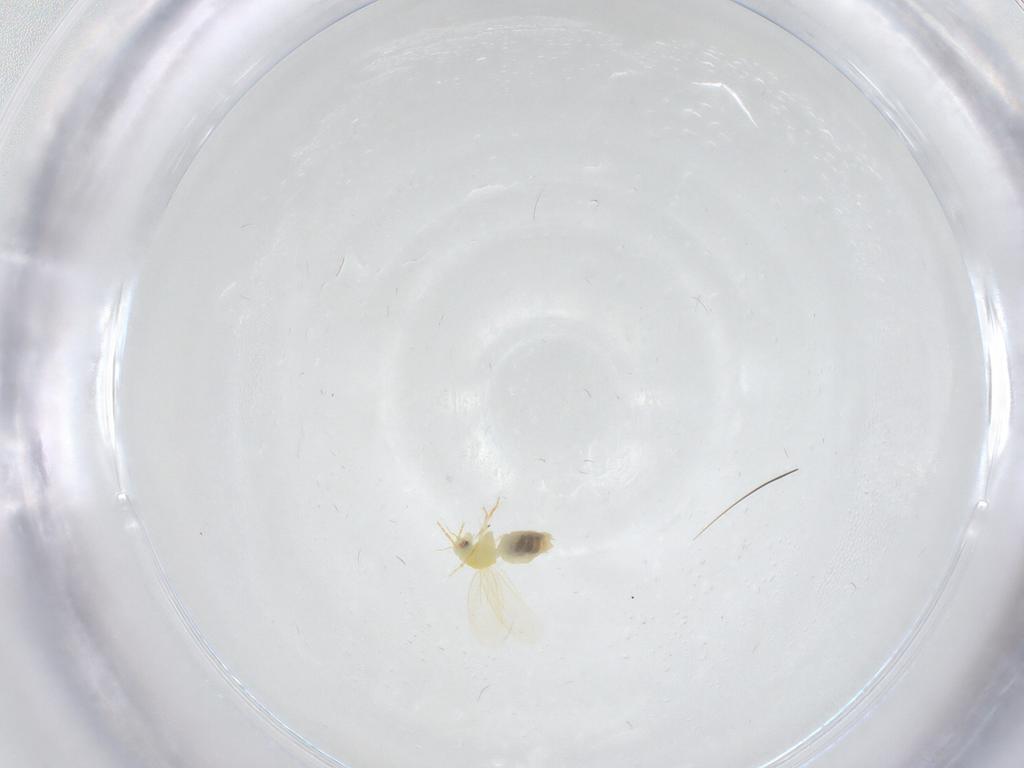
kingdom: Animalia
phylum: Arthropoda
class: Insecta
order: Hemiptera
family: Aleyrodidae
